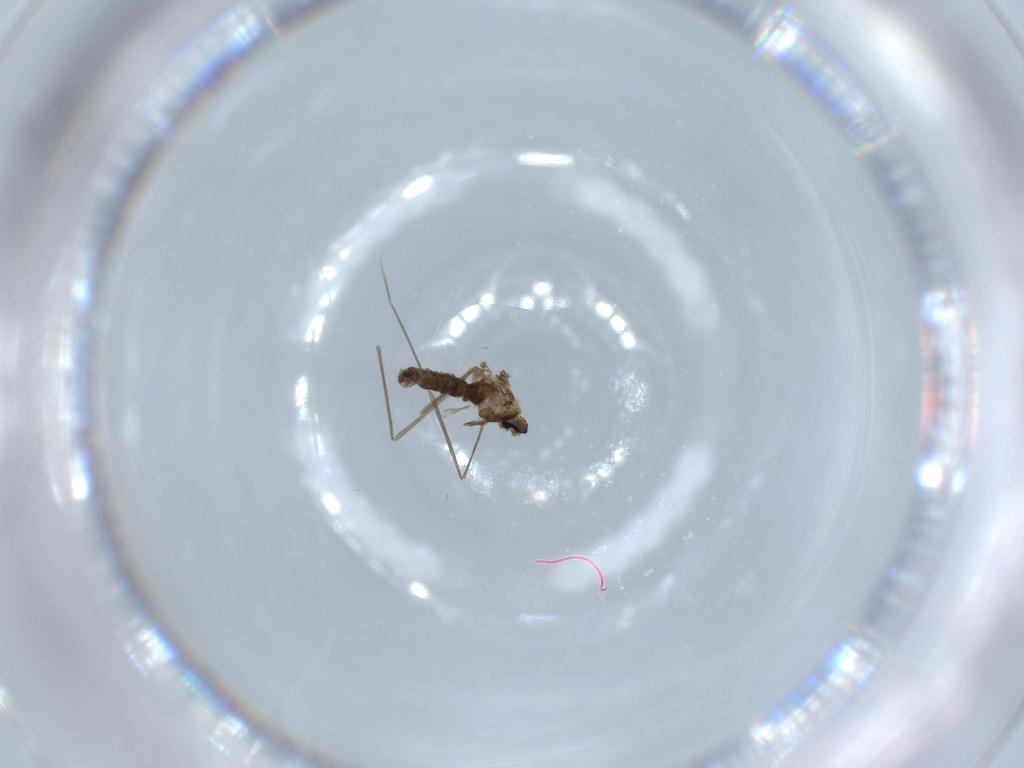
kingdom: Animalia
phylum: Arthropoda
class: Insecta
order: Diptera
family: Cecidomyiidae
